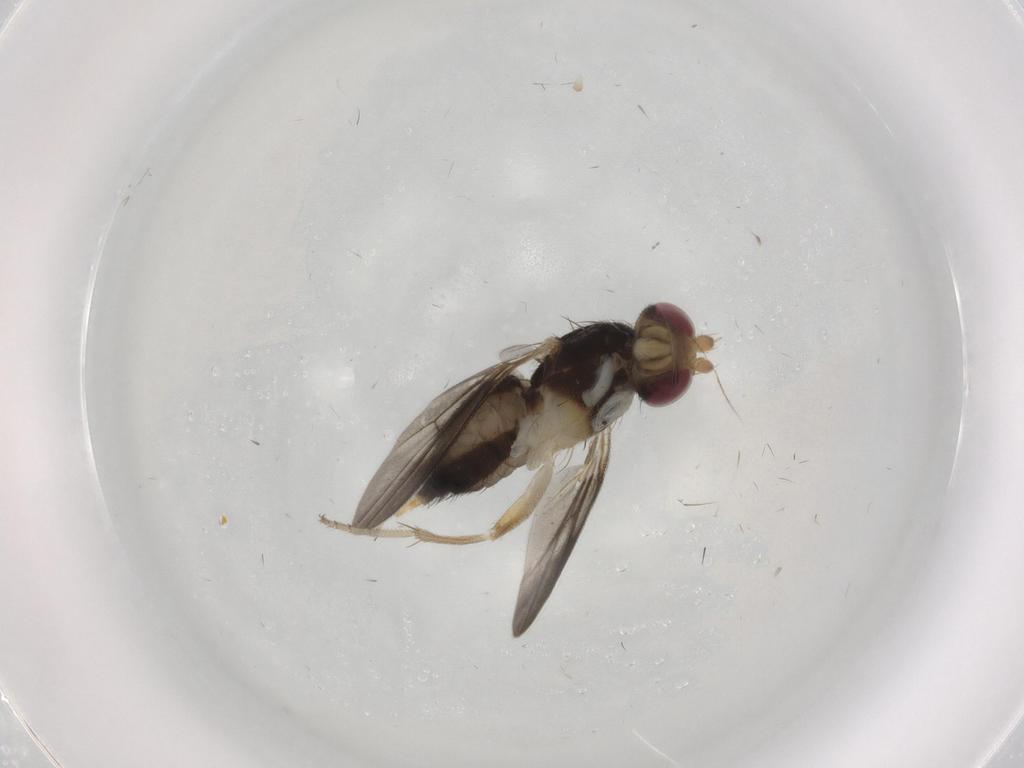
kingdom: Animalia
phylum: Arthropoda
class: Insecta
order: Diptera
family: Clusiidae
